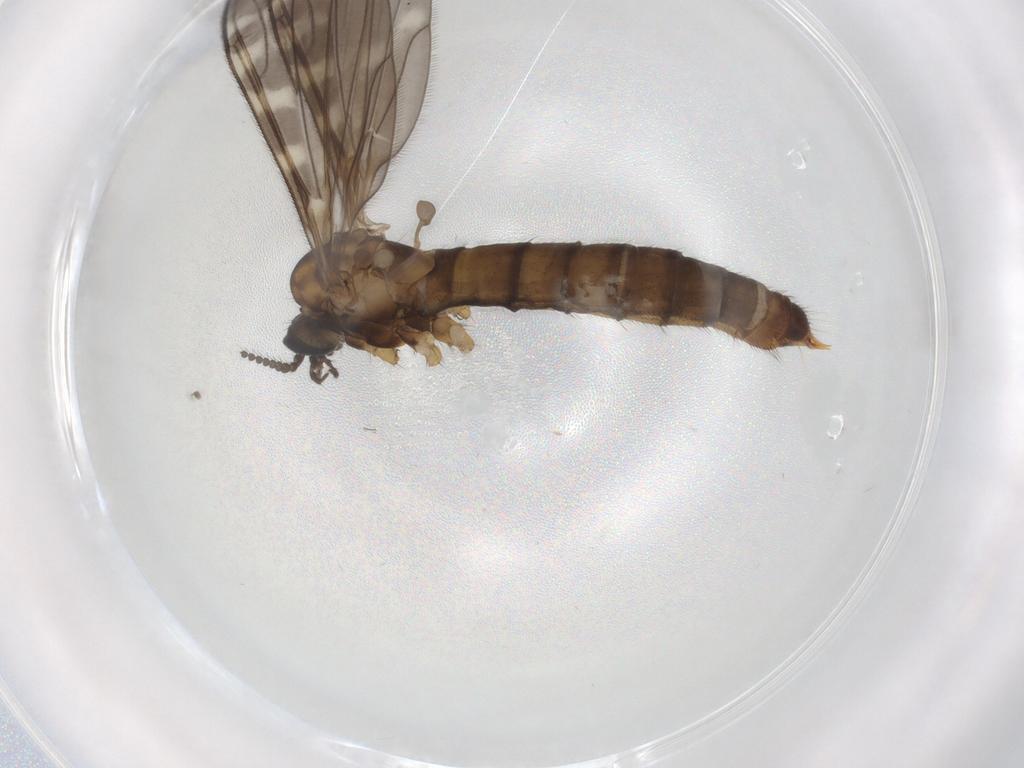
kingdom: Animalia
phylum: Arthropoda
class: Insecta
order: Diptera
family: Limoniidae
